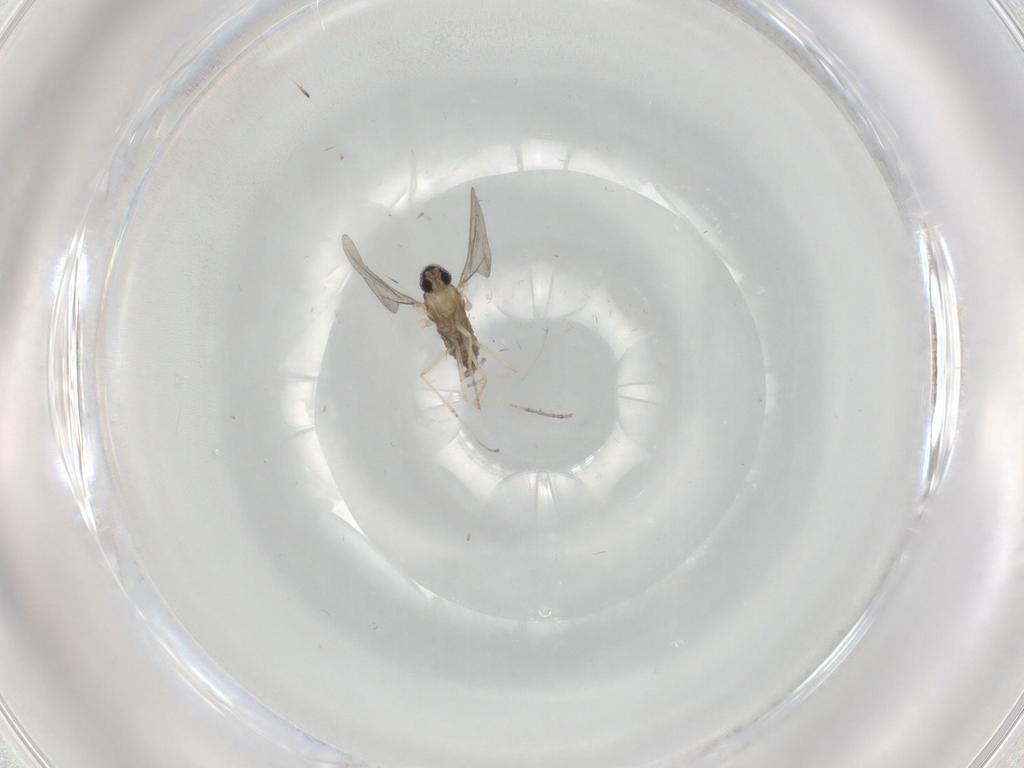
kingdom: Animalia
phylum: Arthropoda
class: Insecta
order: Diptera
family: Cecidomyiidae
